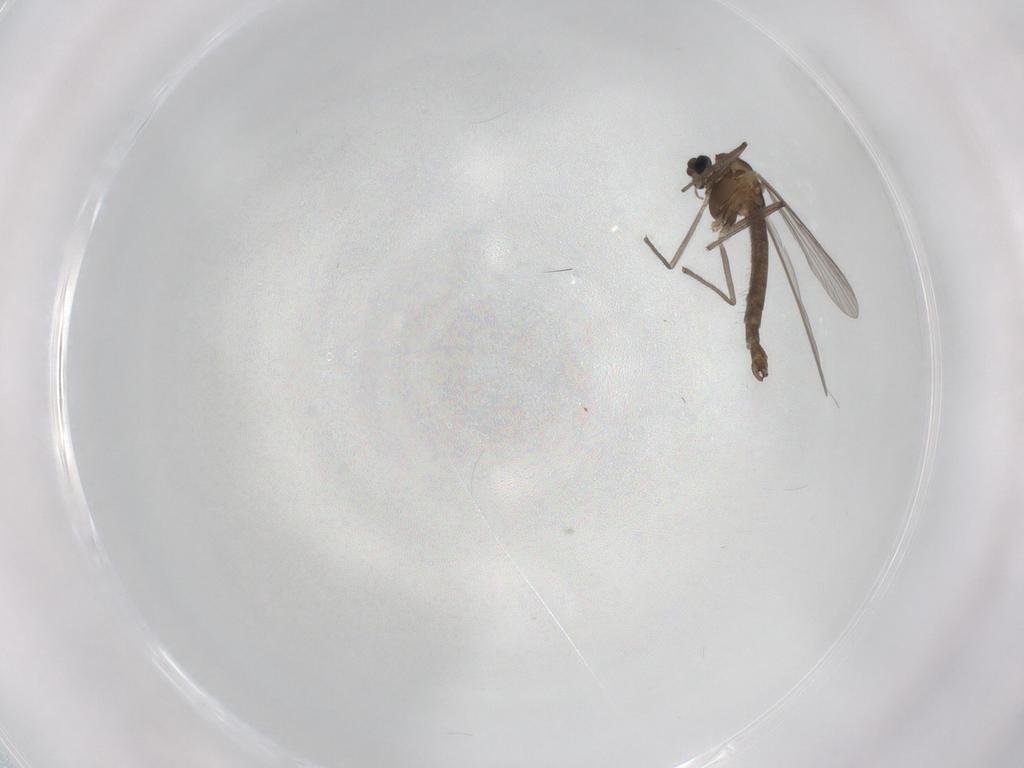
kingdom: Animalia
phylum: Arthropoda
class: Insecta
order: Diptera
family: Chironomidae
